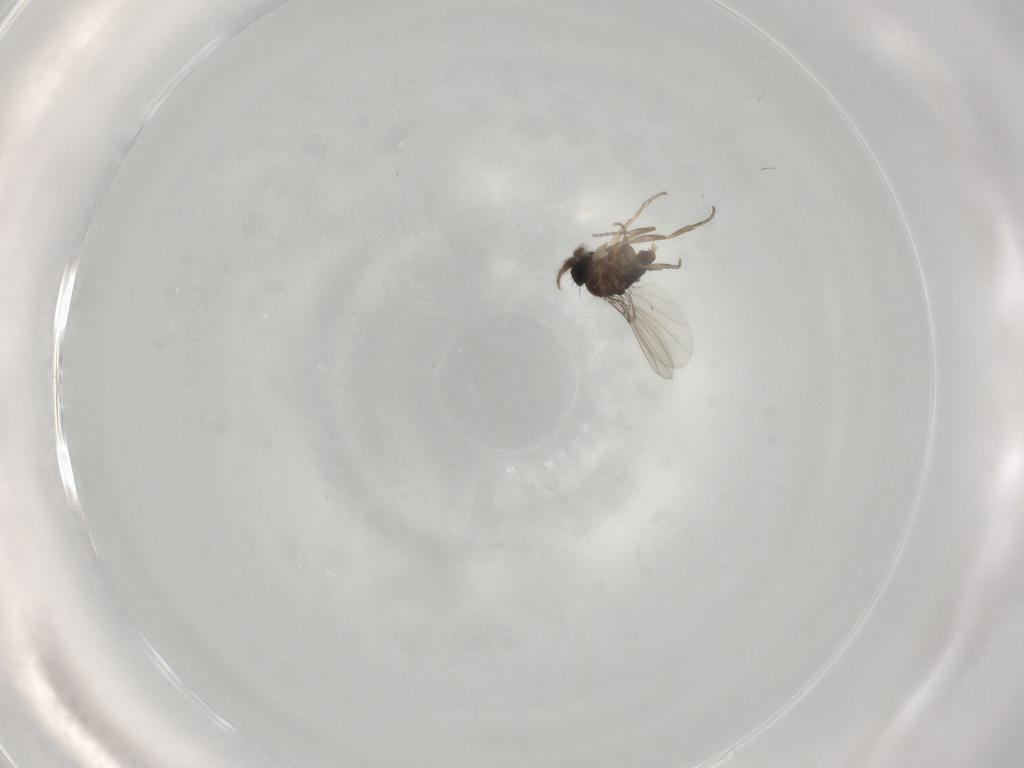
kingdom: Animalia
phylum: Arthropoda
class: Insecta
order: Diptera
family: Phoridae
